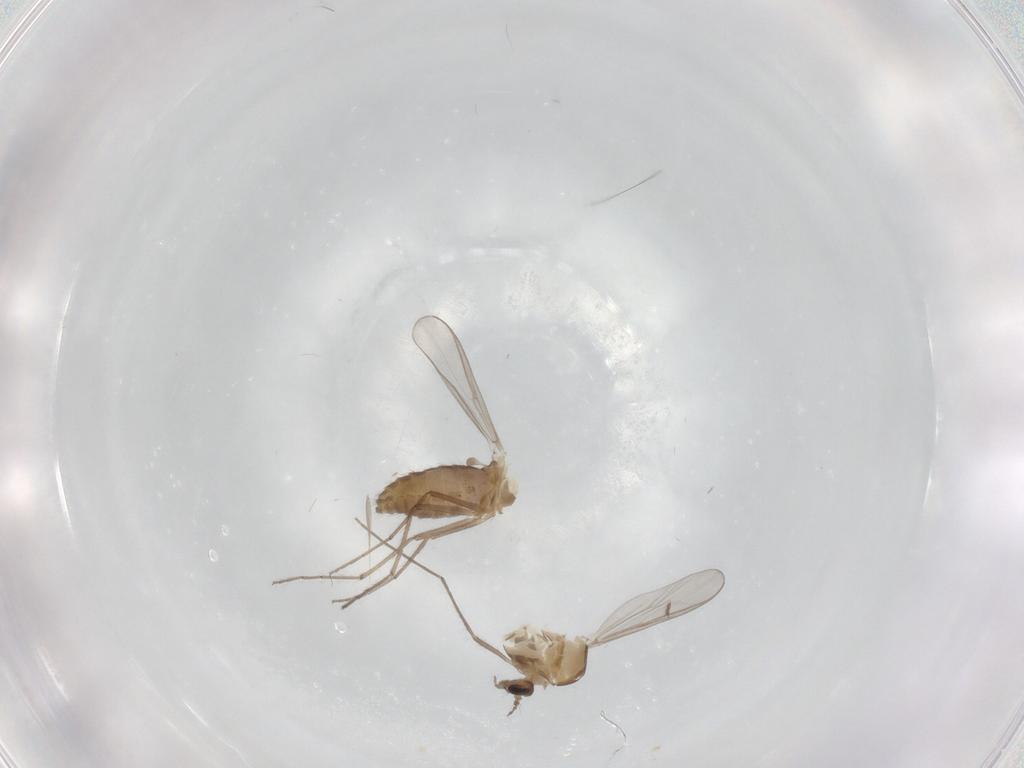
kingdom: Animalia
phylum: Arthropoda
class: Insecta
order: Diptera
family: Chironomidae
